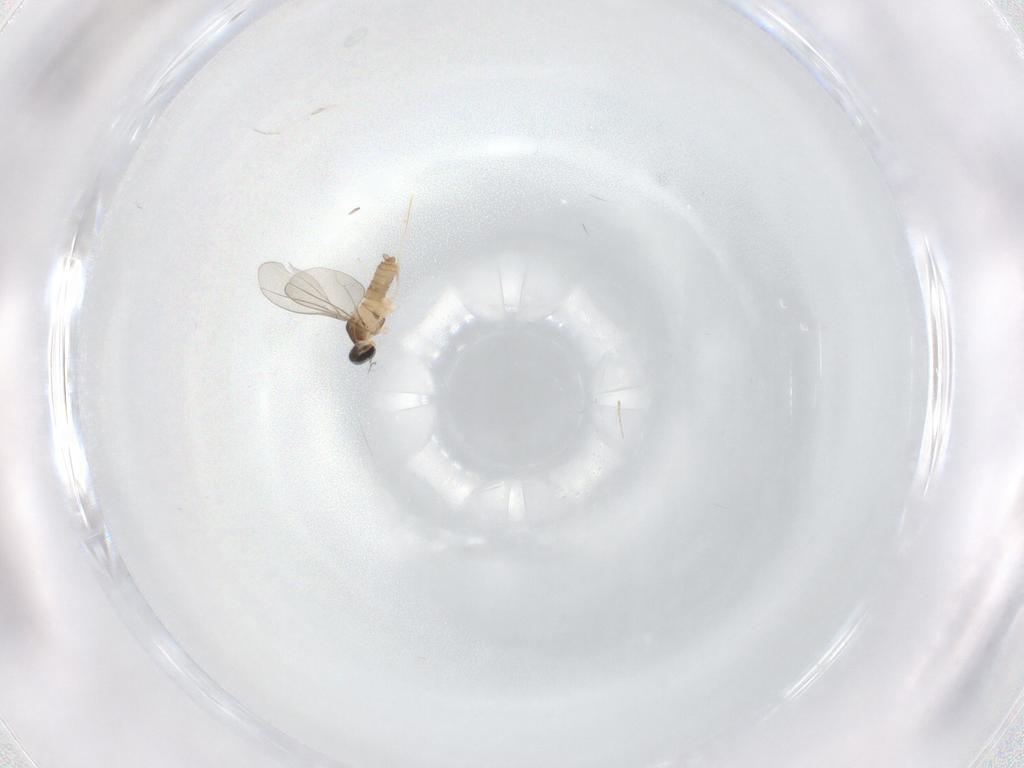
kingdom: Animalia
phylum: Arthropoda
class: Insecta
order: Diptera
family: Cecidomyiidae
